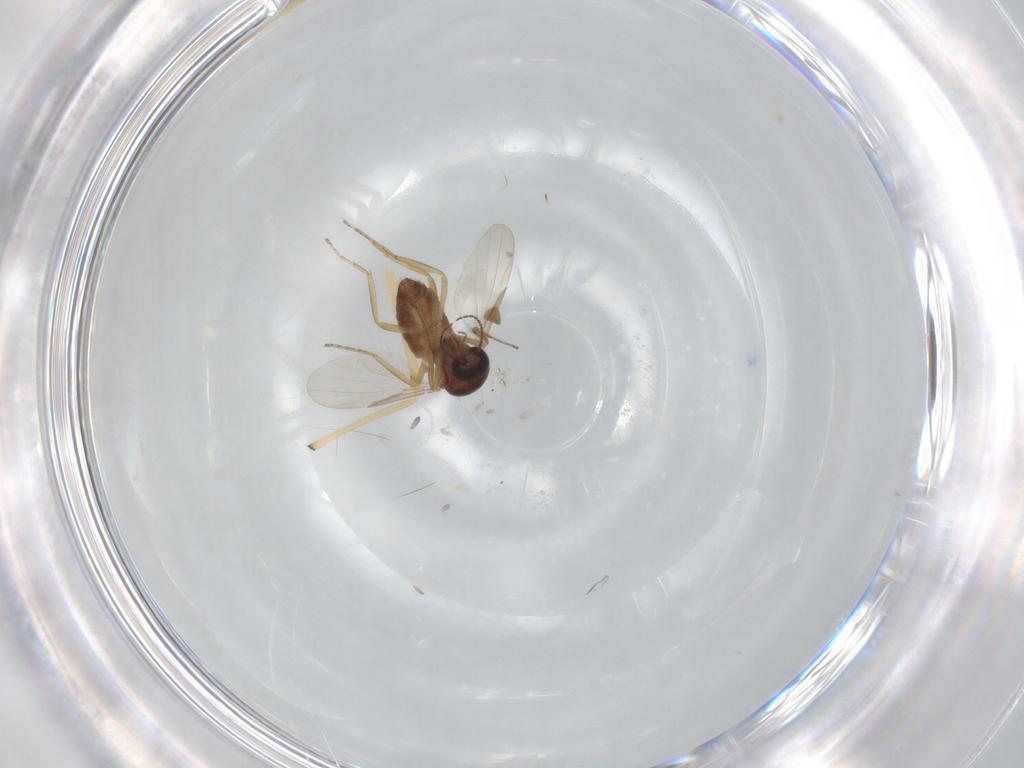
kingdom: Animalia
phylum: Arthropoda
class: Insecta
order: Diptera
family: Ceratopogonidae
